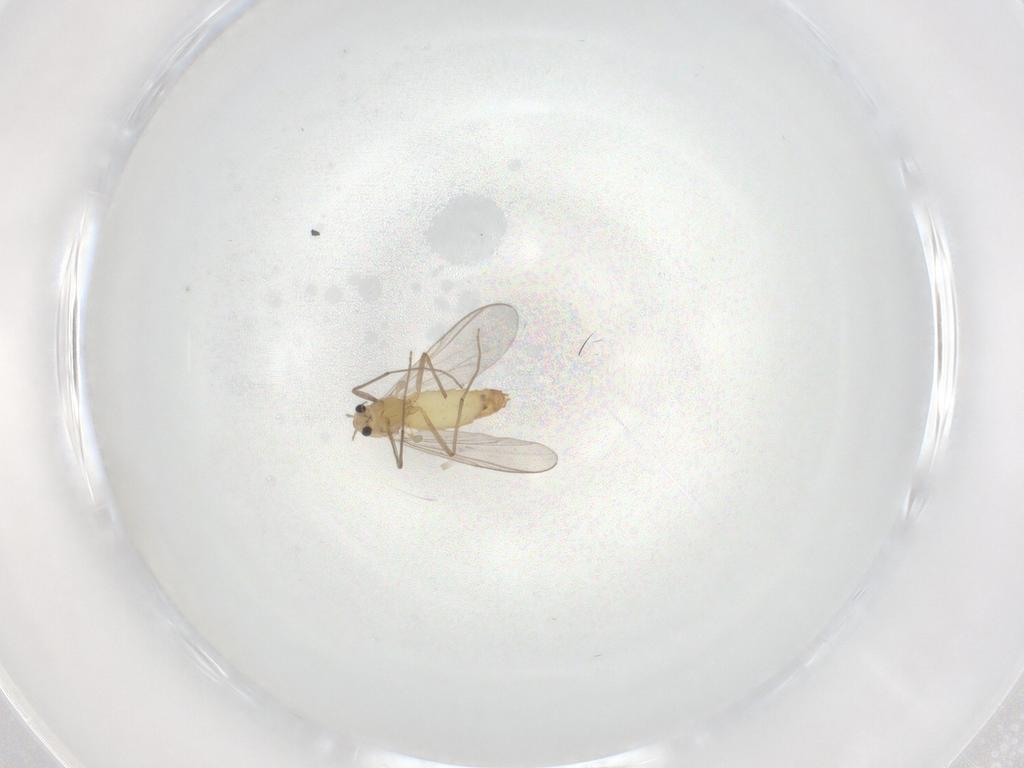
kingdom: Animalia
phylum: Arthropoda
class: Insecta
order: Diptera
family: Chironomidae
